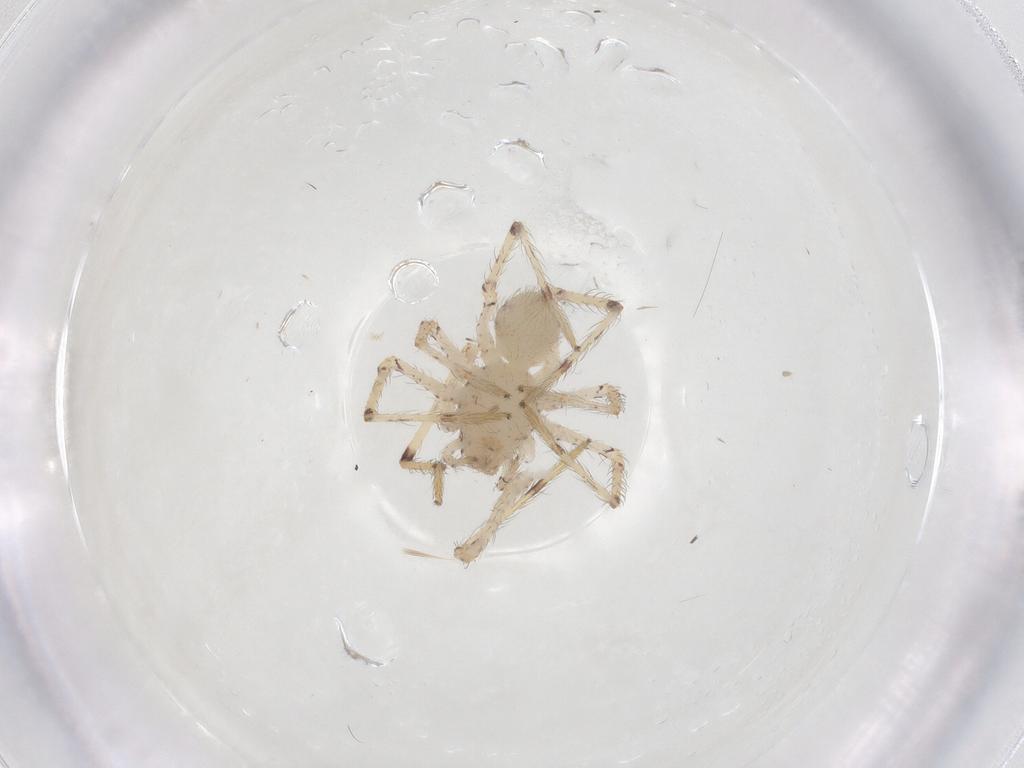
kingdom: Animalia
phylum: Arthropoda
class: Arachnida
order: Araneae
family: Scytodidae
